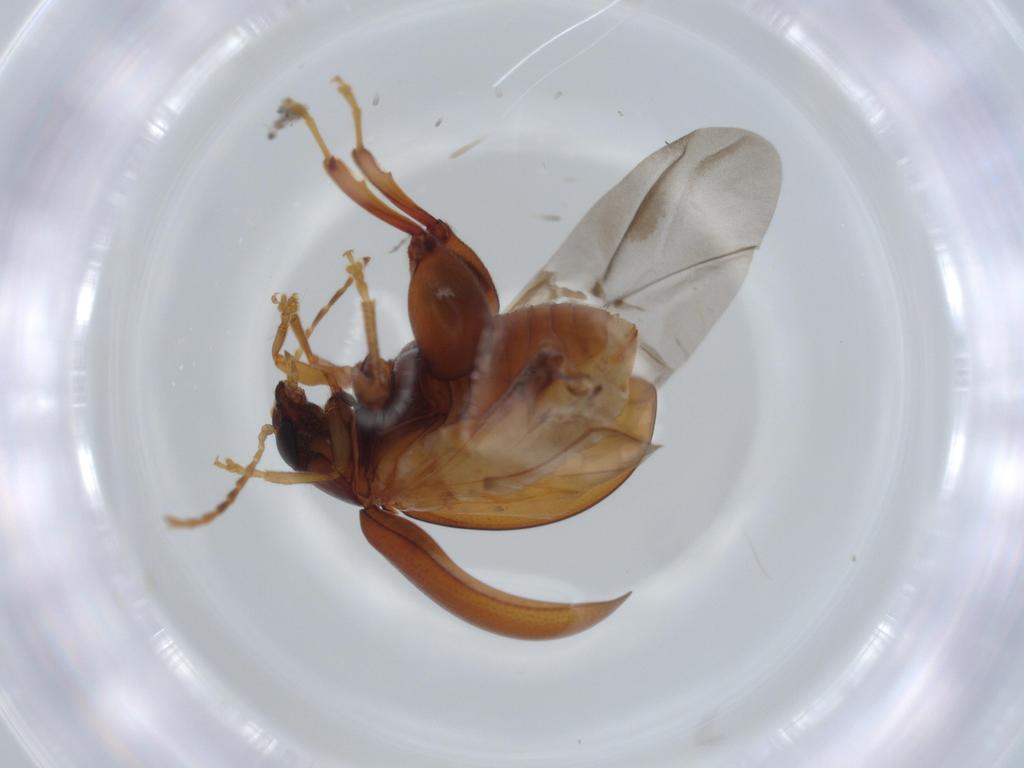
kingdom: Animalia
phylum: Arthropoda
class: Insecta
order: Coleoptera
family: Chrysomelidae
